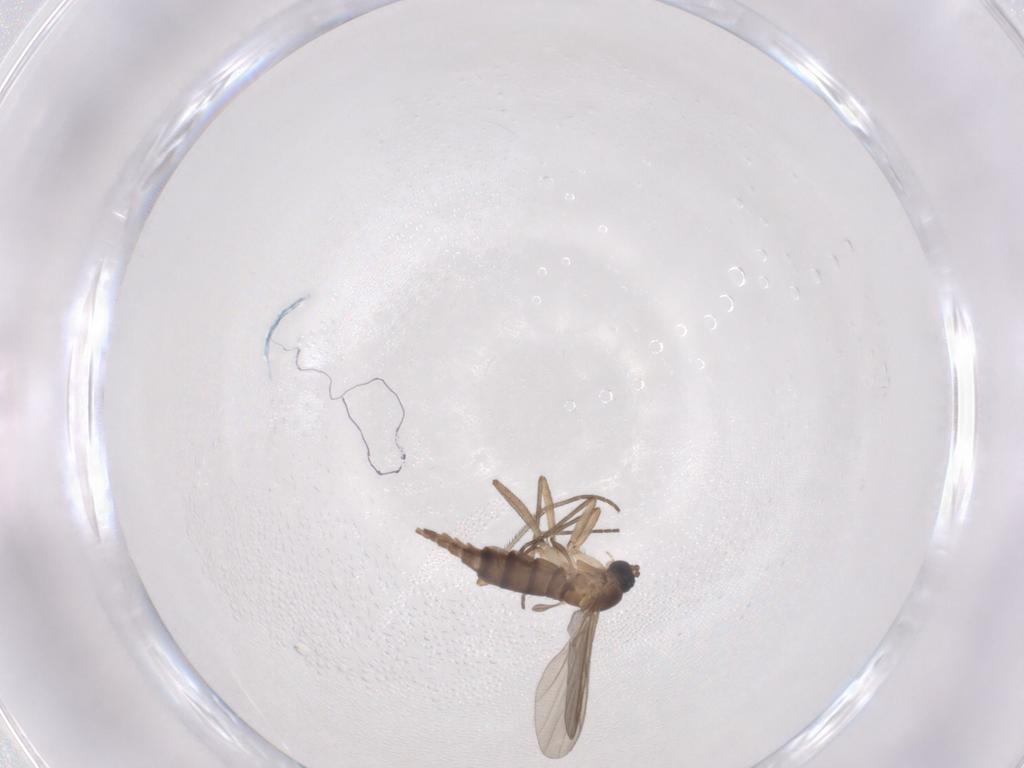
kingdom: Animalia
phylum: Arthropoda
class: Insecta
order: Diptera
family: Sciaridae
